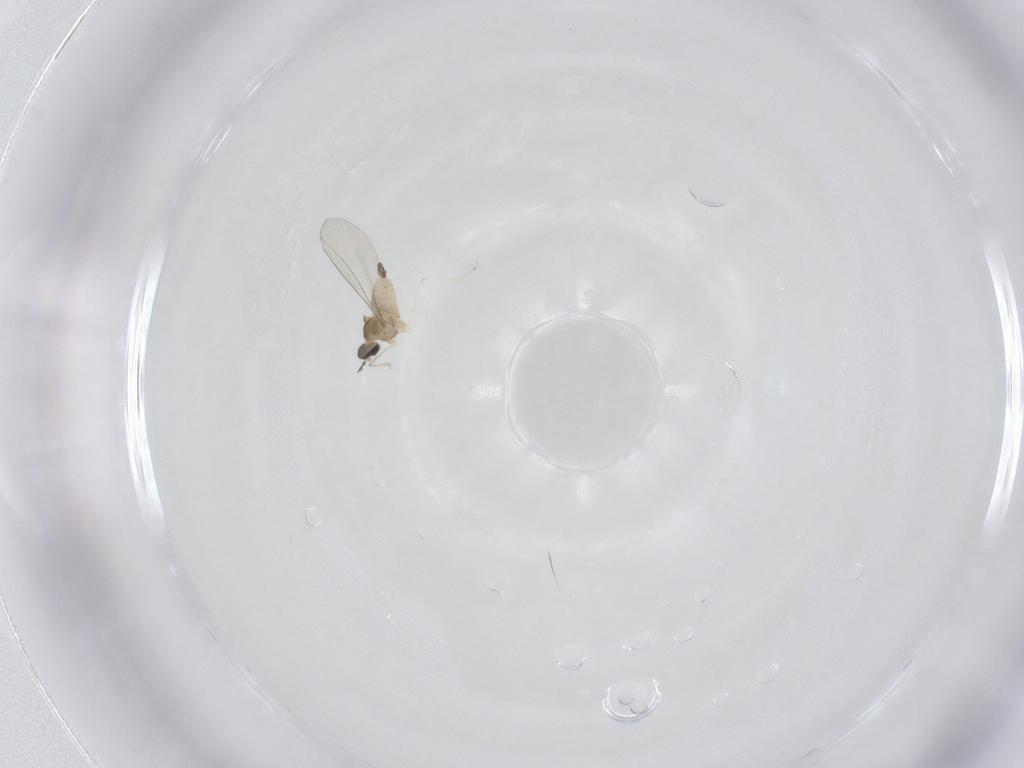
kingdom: Animalia
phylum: Arthropoda
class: Insecta
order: Diptera
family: Cecidomyiidae
